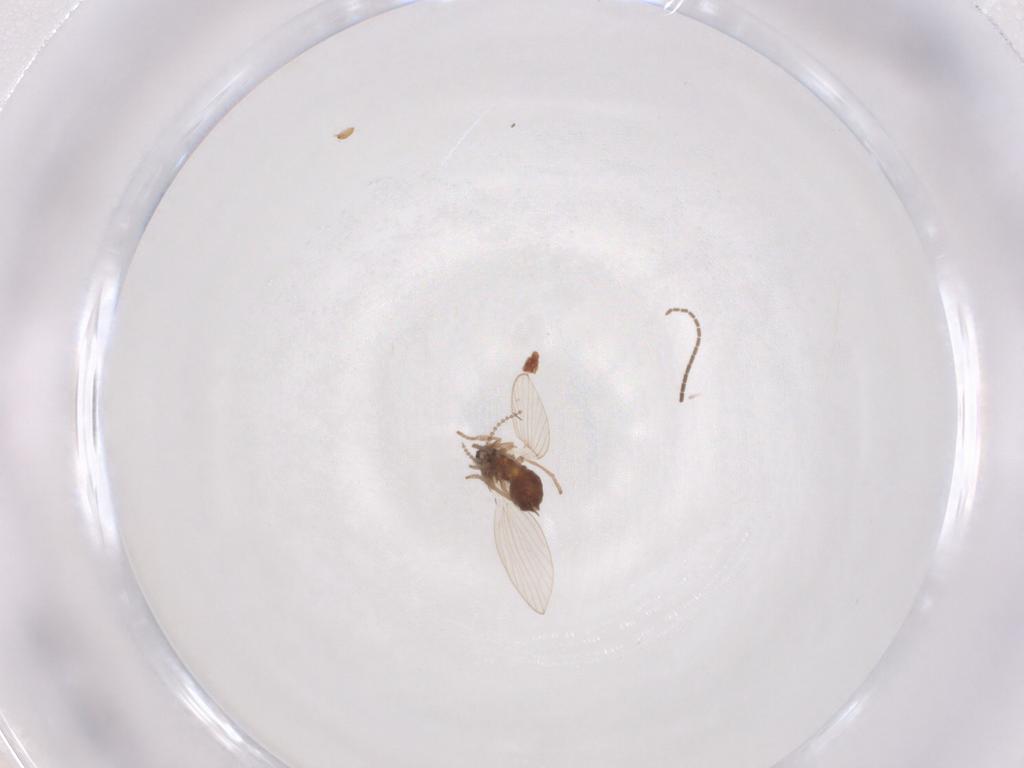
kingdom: Animalia
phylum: Arthropoda
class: Insecta
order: Diptera
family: Psychodidae
